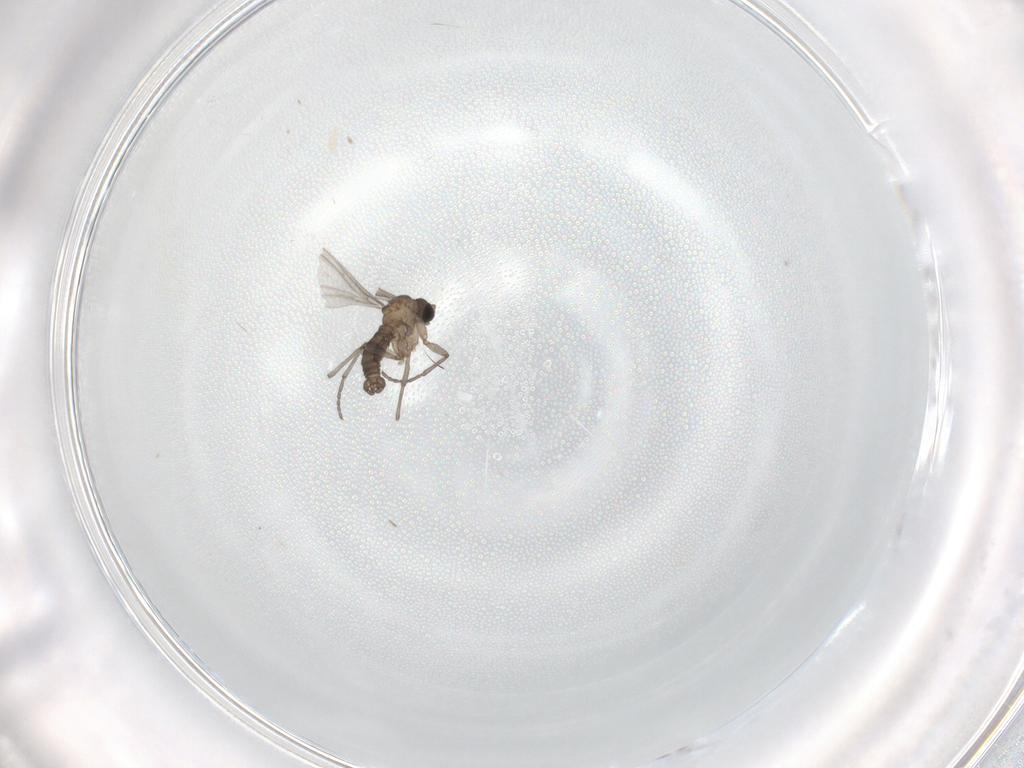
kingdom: Animalia
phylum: Arthropoda
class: Insecta
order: Diptera
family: Sciaridae
